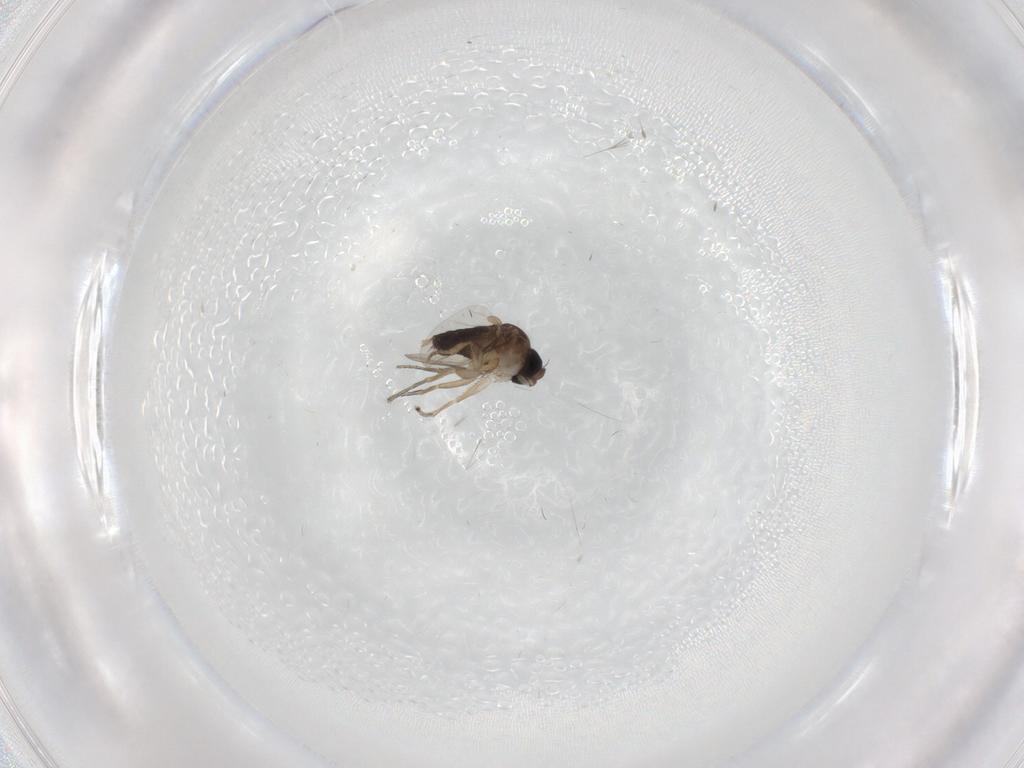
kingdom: Animalia
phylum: Arthropoda
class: Insecta
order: Diptera
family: Phoridae
